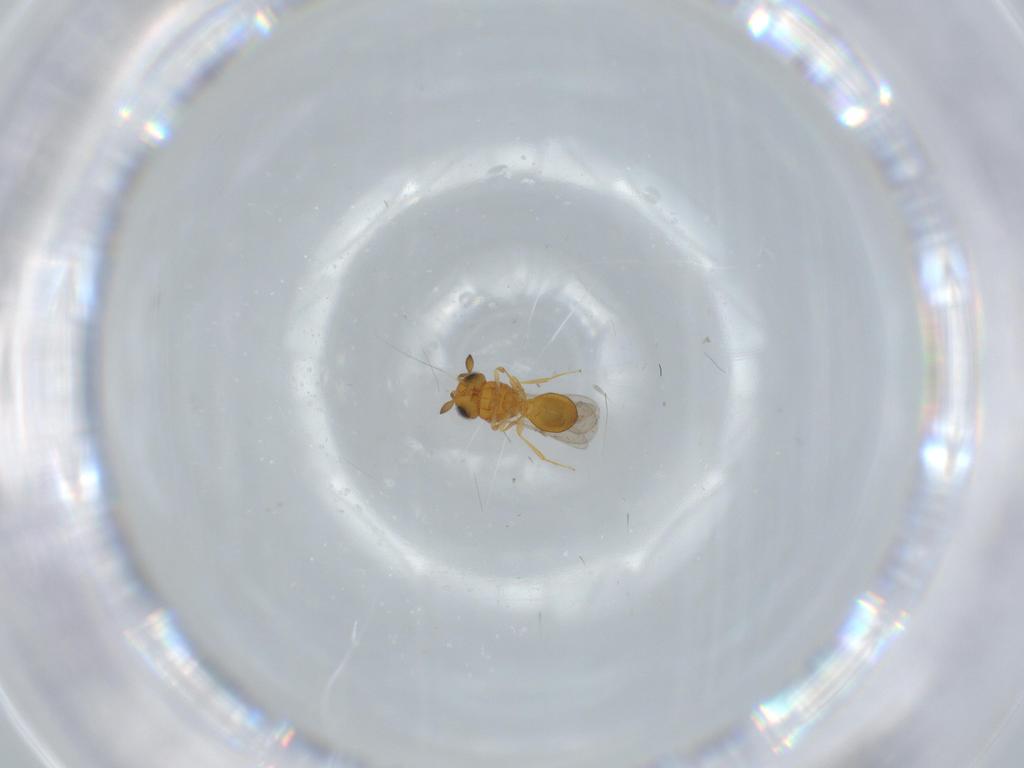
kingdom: Animalia
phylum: Arthropoda
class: Insecta
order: Hymenoptera
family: Scelionidae
